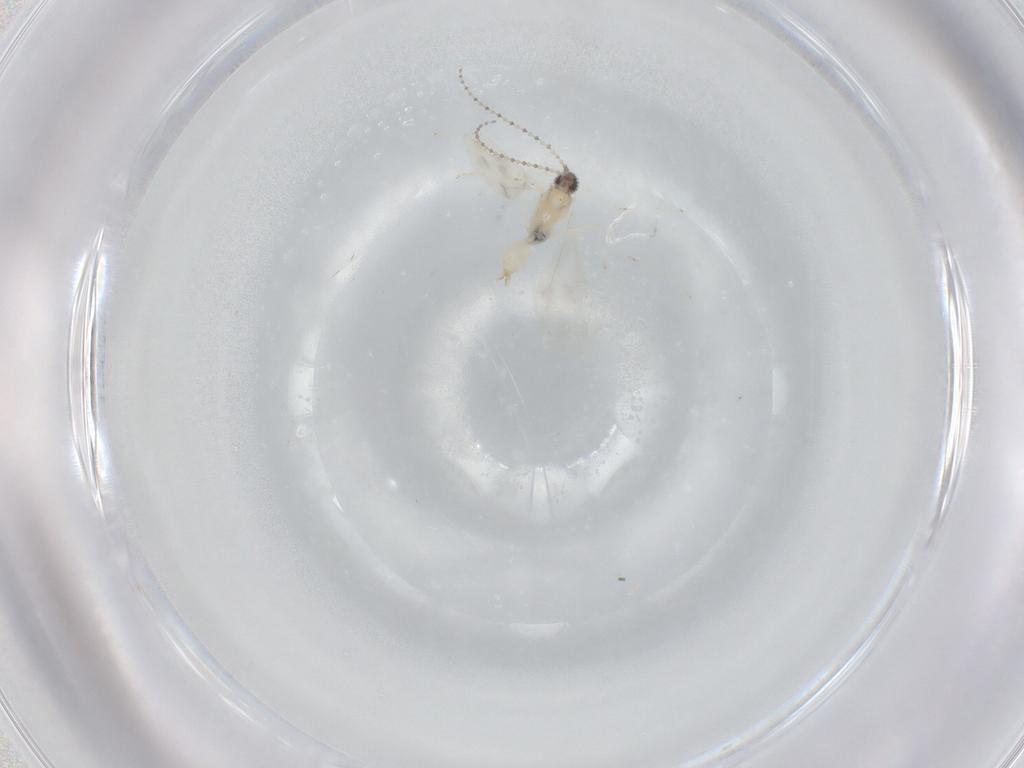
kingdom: Animalia
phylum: Arthropoda
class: Insecta
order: Diptera
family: Cecidomyiidae
